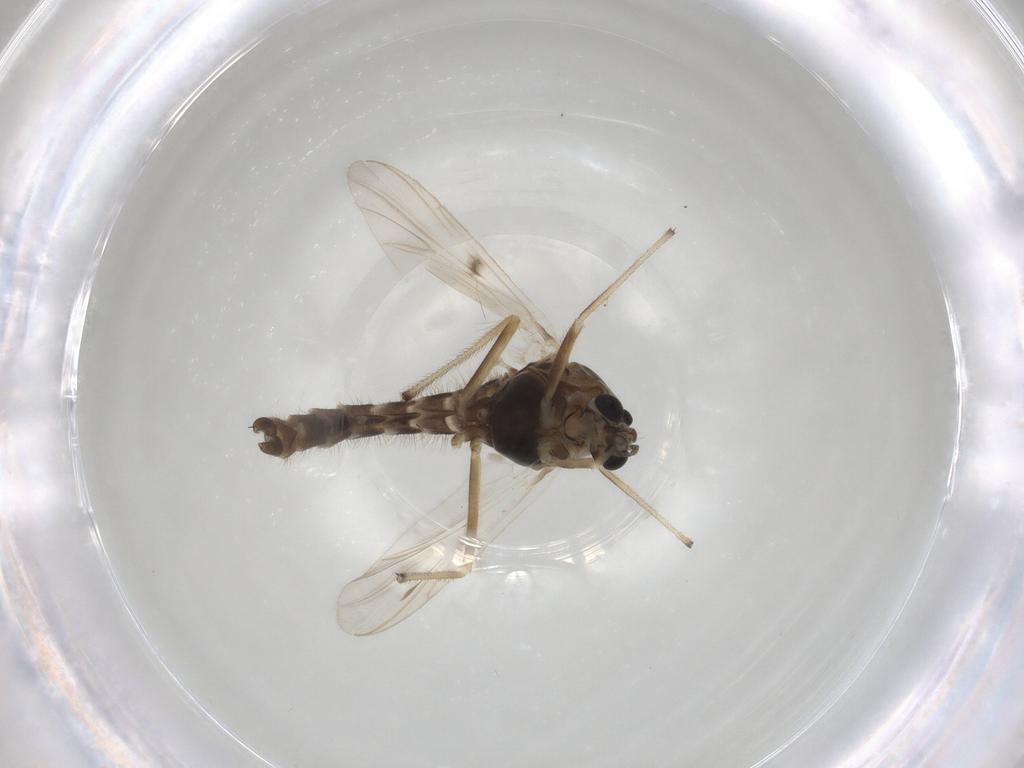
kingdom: Animalia
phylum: Arthropoda
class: Insecta
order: Diptera
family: Chironomidae
